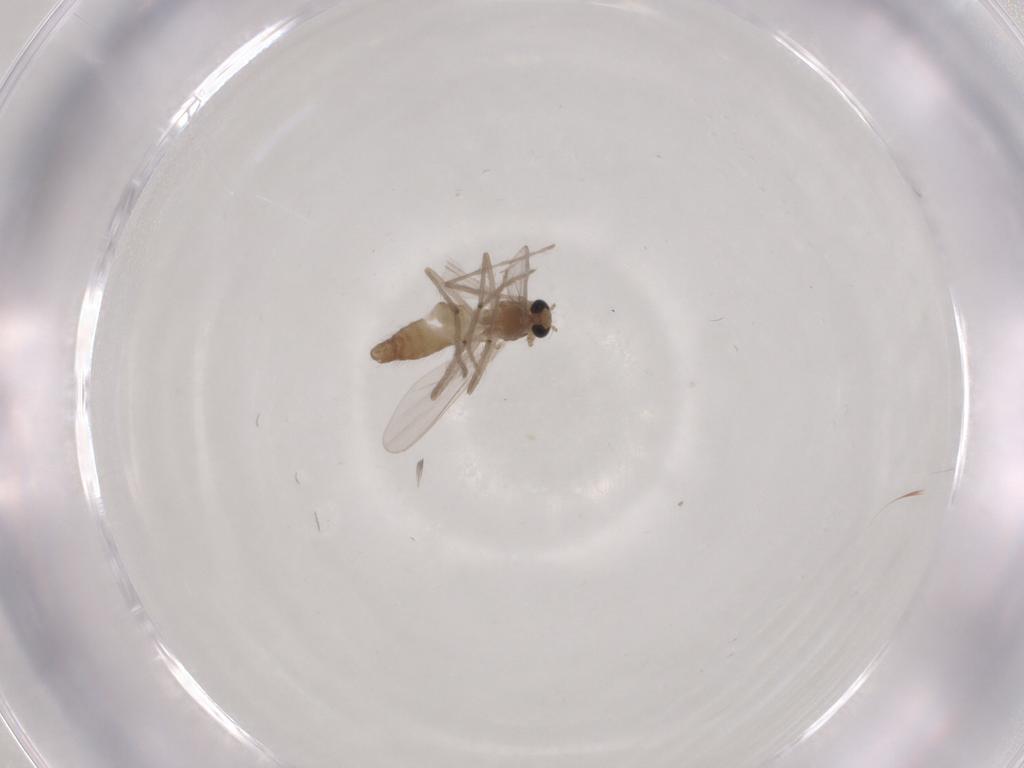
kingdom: Animalia
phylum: Arthropoda
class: Insecta
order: Diptera
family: Chironomidae
